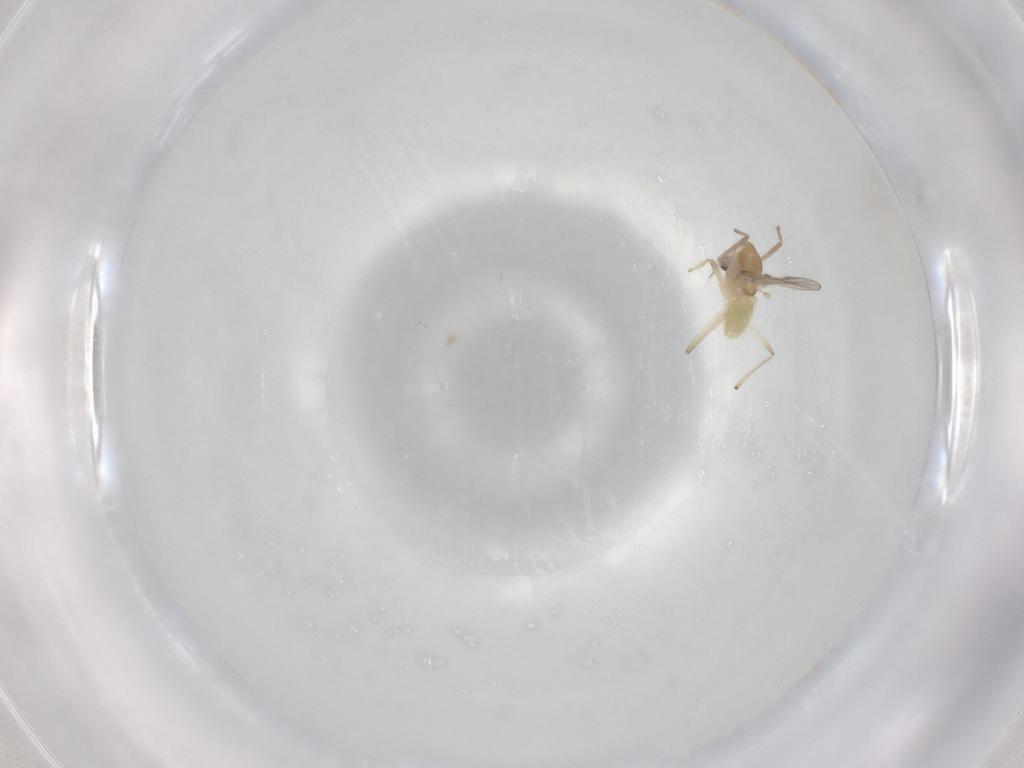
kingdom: Animalia
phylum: Arthropoda
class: Insecta
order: Diptera
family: Chironomidae
